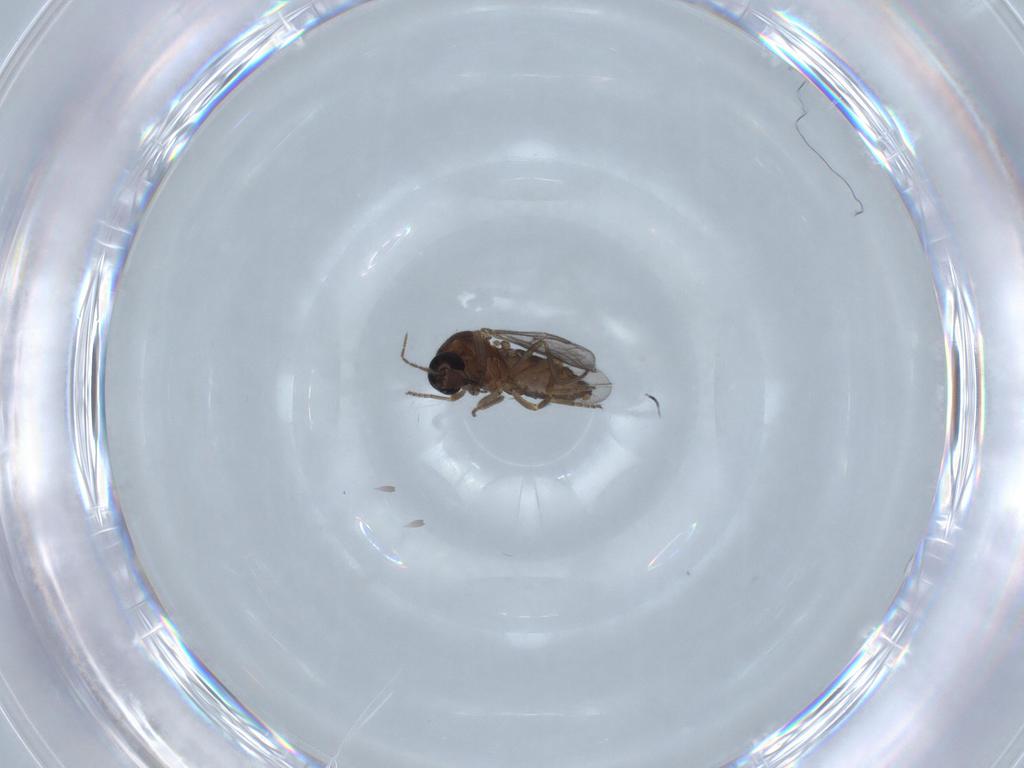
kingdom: Animalia
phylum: Arthropoda
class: Insecta
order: Diptera
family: Ceratopogonidae
